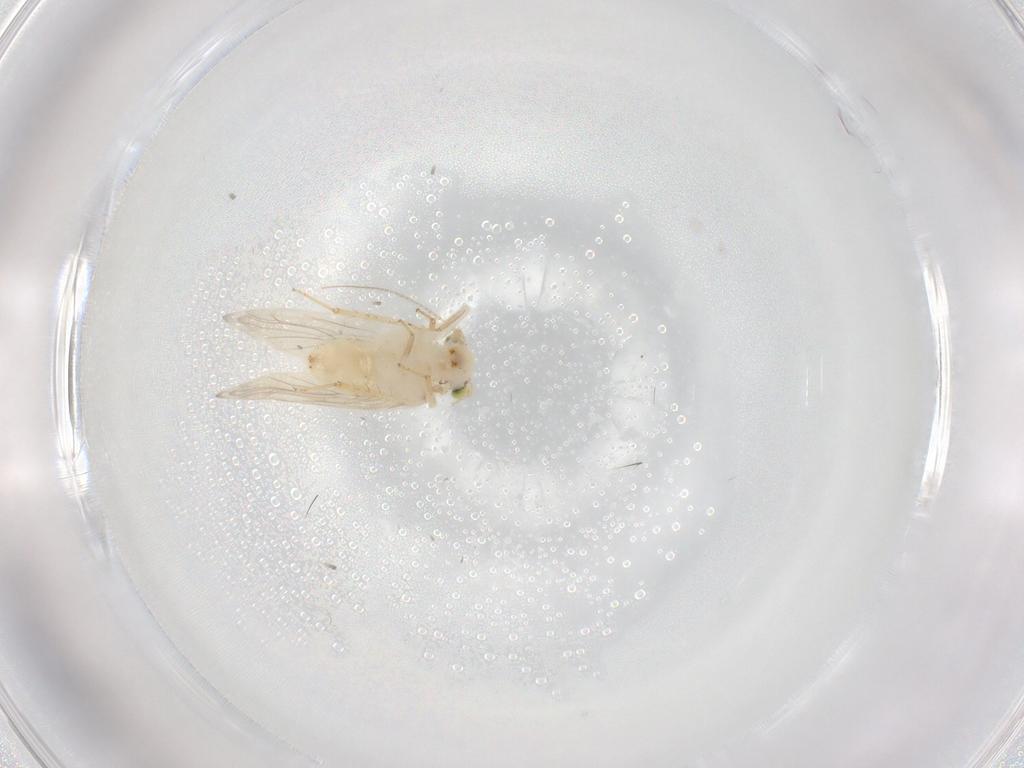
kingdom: Animalia
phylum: Arthropoda
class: Insecta
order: Psocodea
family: Lepidopsocidae
